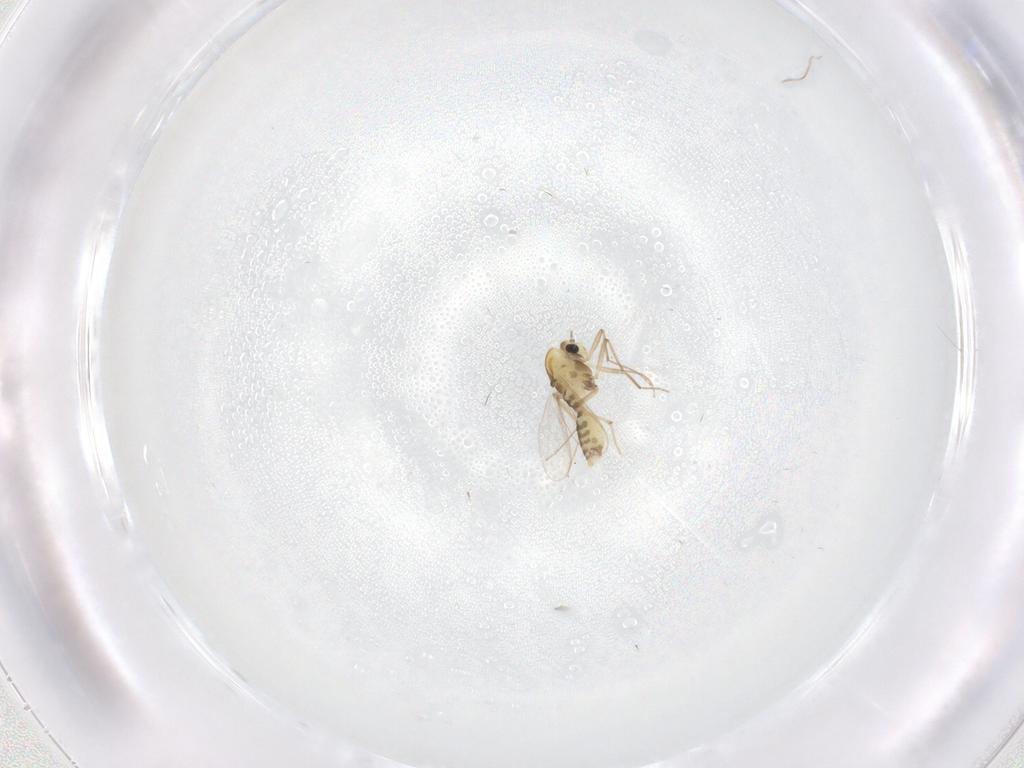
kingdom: Animalia
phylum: Arthropoda
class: Insecta
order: Diptera
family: Chironomidae
